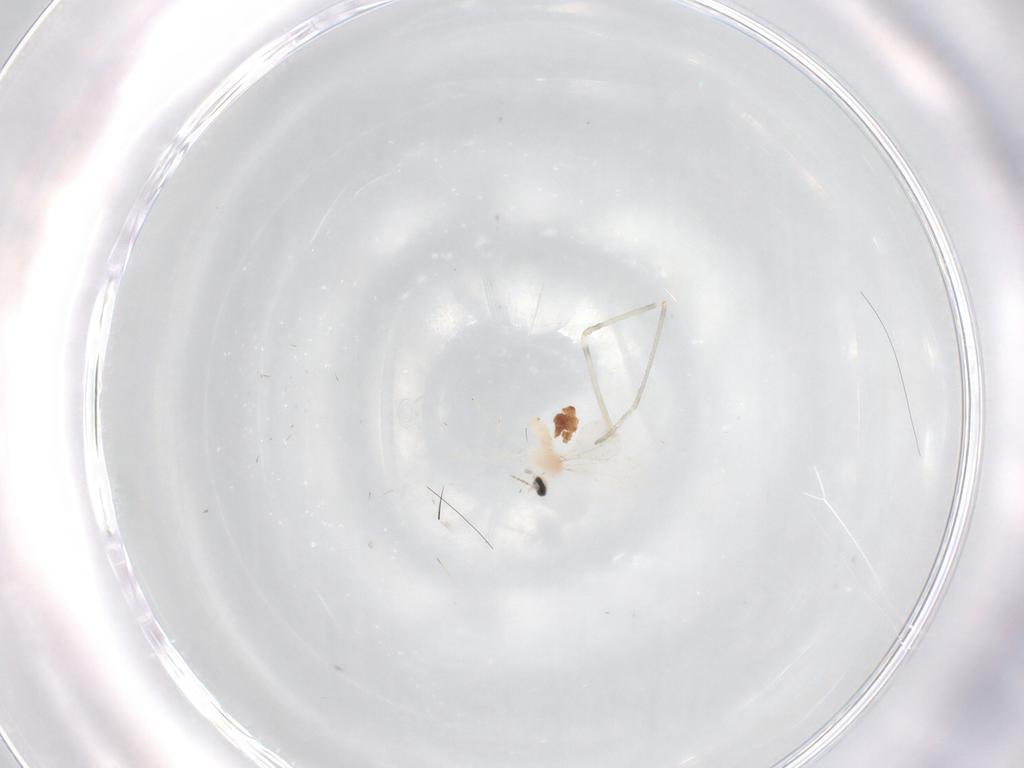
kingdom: Animalia
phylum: Arthropoda
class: Insecta
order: Diptera
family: Cecidomyiidae
